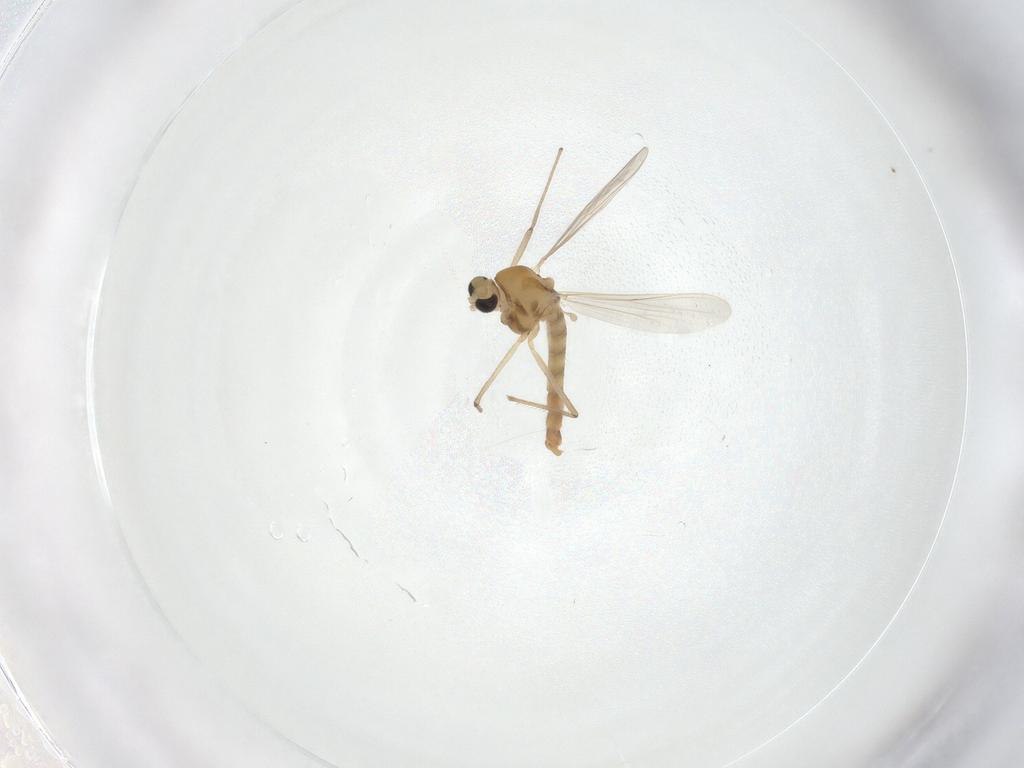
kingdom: Animalia
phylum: Arthropoda
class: Insecta
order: Diptera
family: Chironomidae
